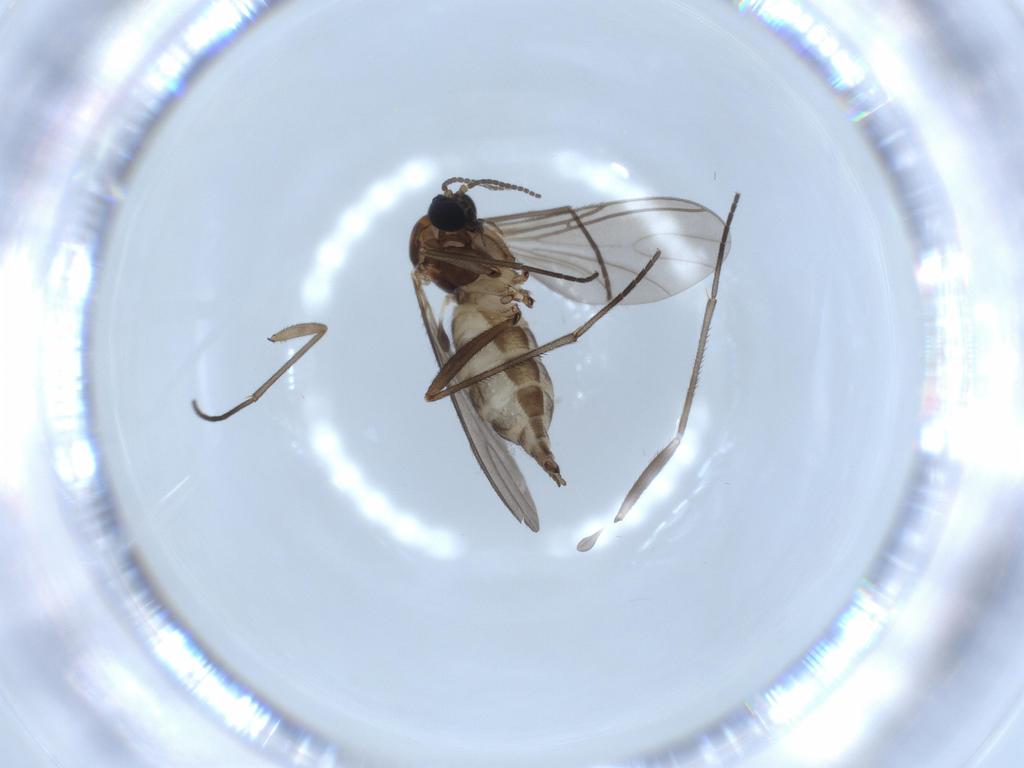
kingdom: Animalia
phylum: Arthropoda
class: Insecta
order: Diptera
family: Sciaridae
